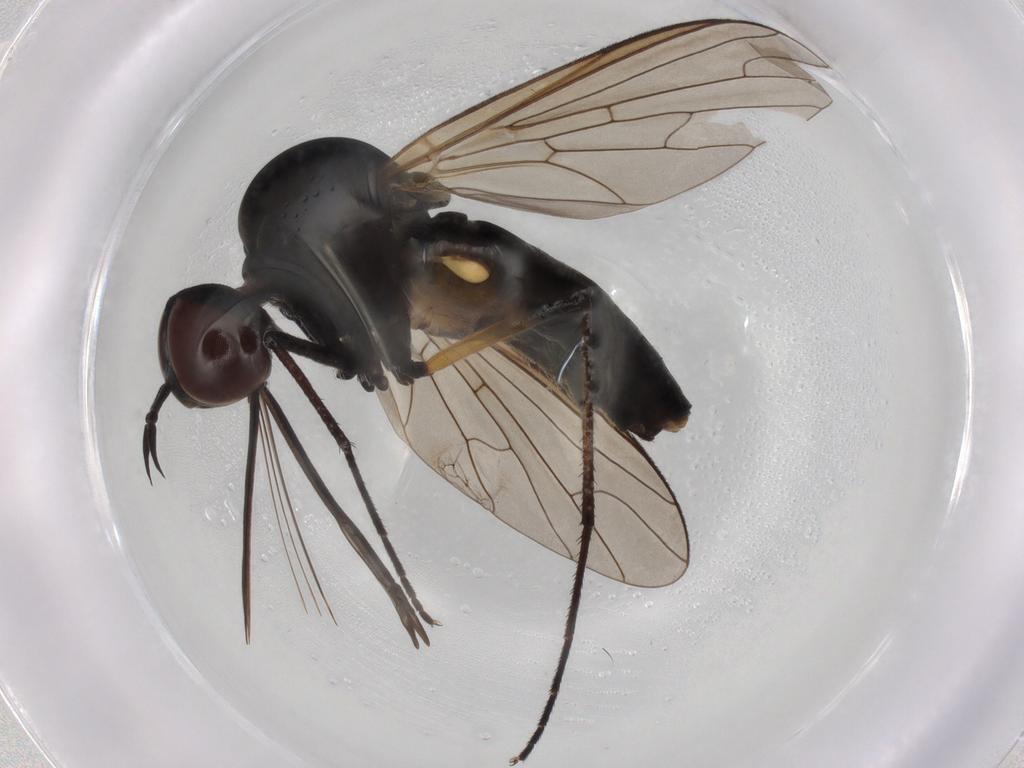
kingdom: Animalia
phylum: Arthropoda
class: Insecta
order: Diptera
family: Bombyliidae
